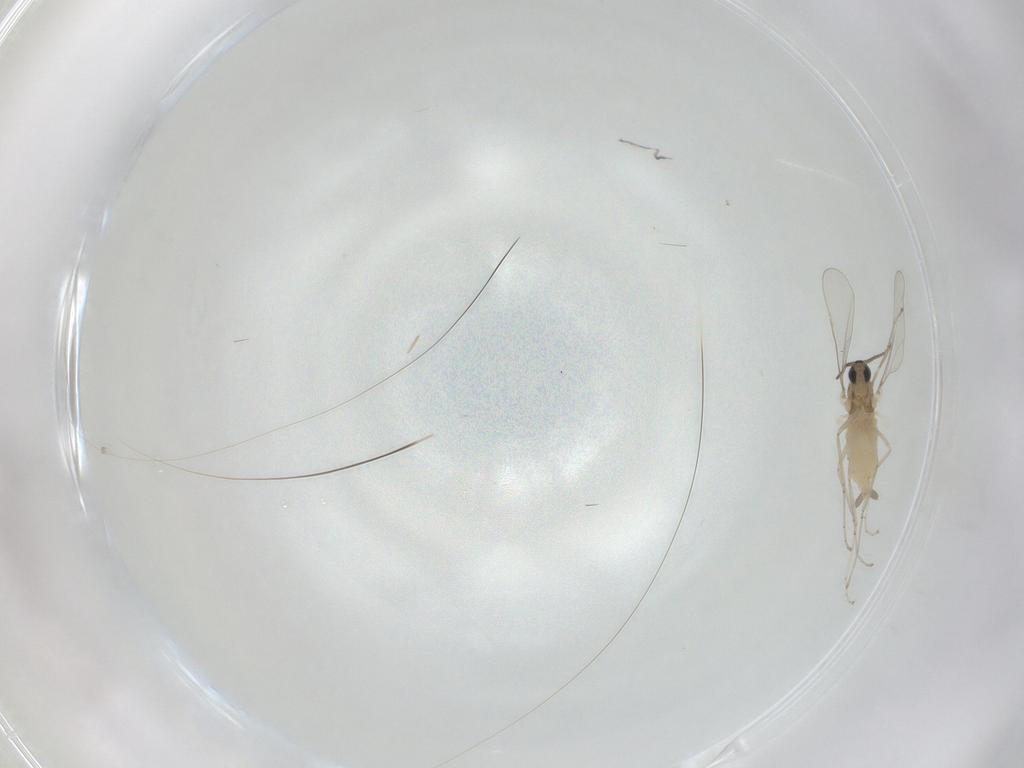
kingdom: Animalia
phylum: Arthropoda
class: Insecta
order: Diptera
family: Cecidomyiidae
